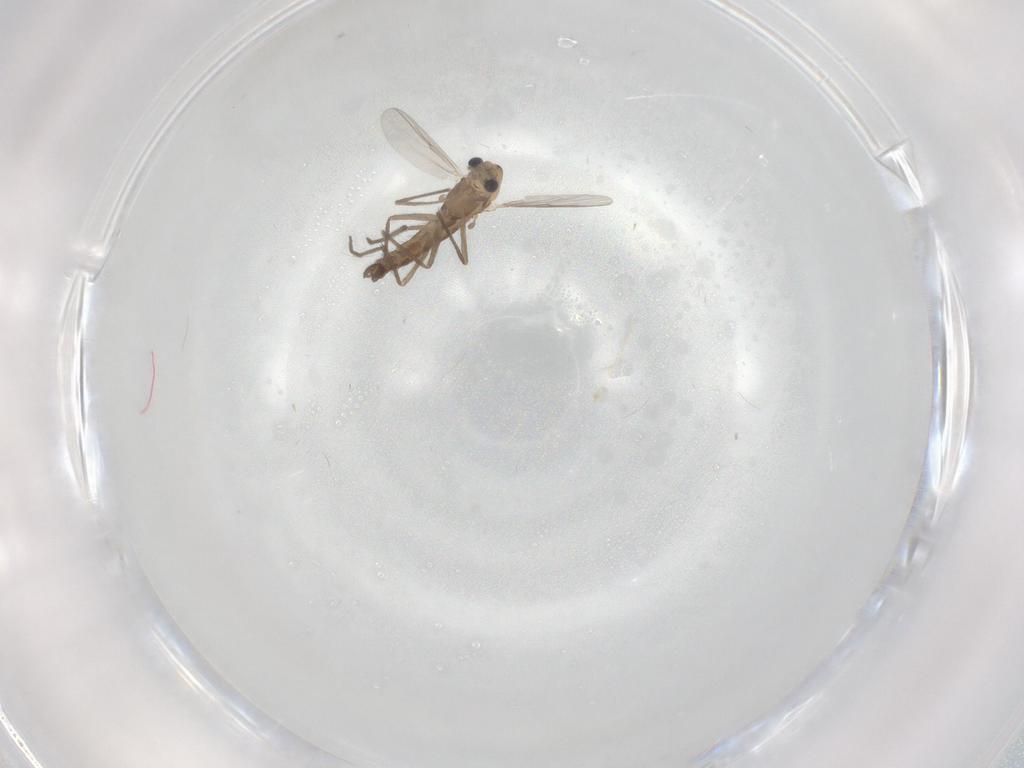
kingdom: Animalia
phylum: Arthropoda
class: Insecta
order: Diptera
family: Chironomidae
